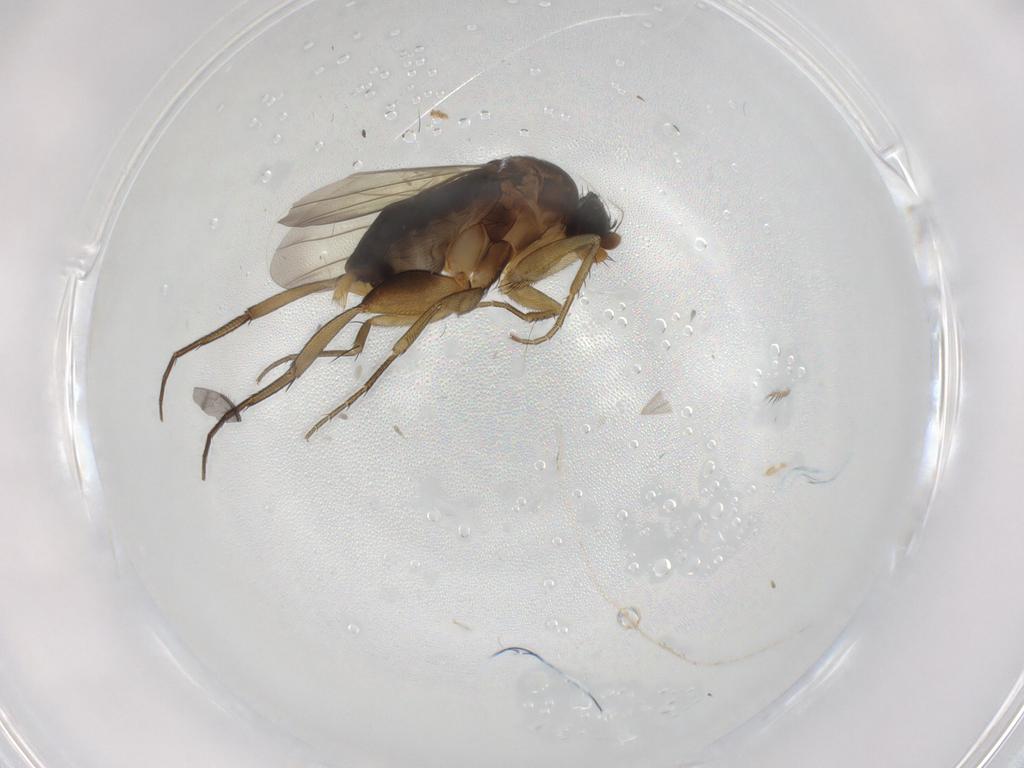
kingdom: Animalia
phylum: Arthropoda
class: Insecta
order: Diptera
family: Phoridae
